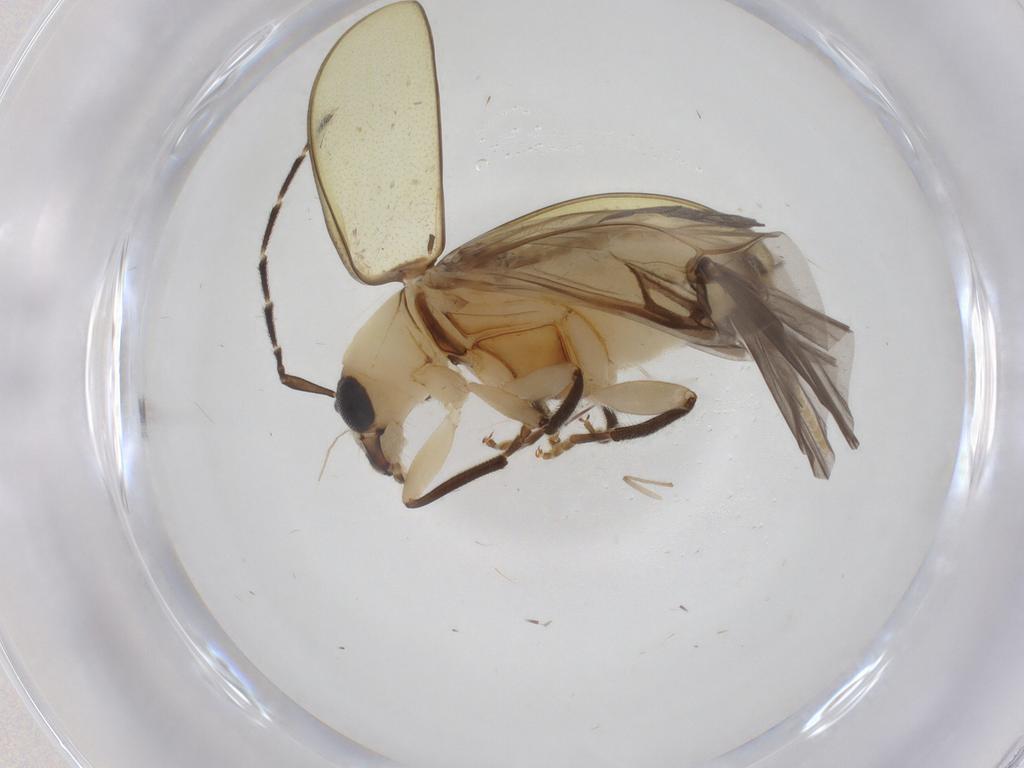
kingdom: Animalia
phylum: Arthropoda
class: Insecta
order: Coleoptera
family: Chrysomelidae
